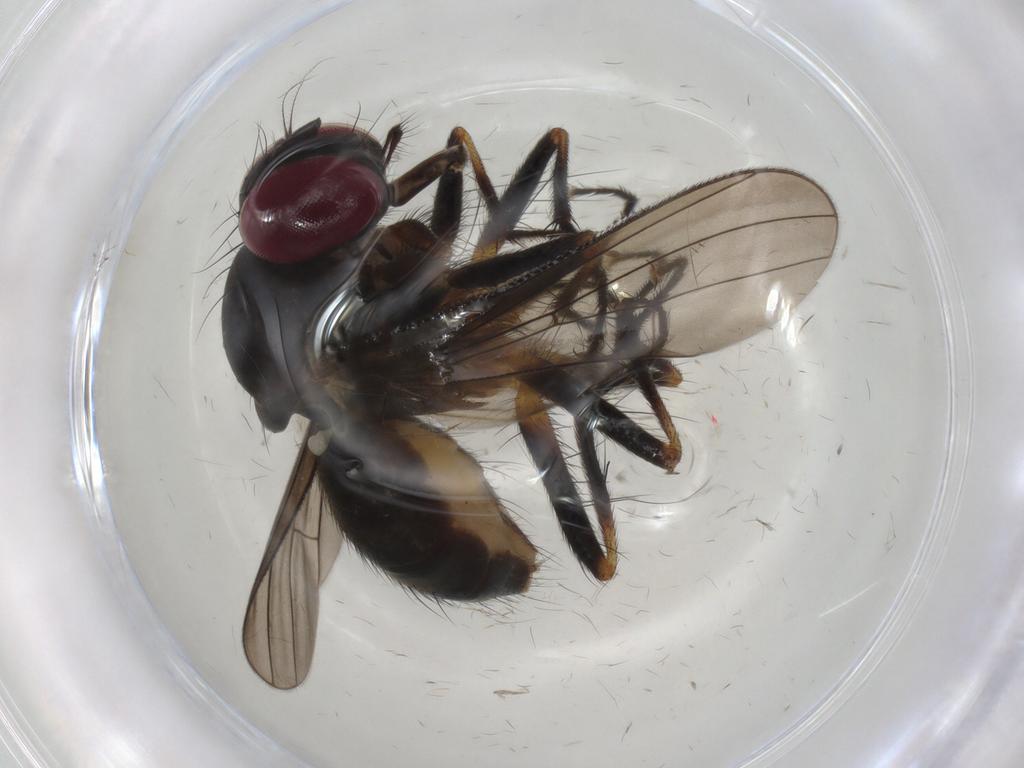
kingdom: Animalia
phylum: Arthropoda
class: Insecta
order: Diptera
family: Anthomyiidae
